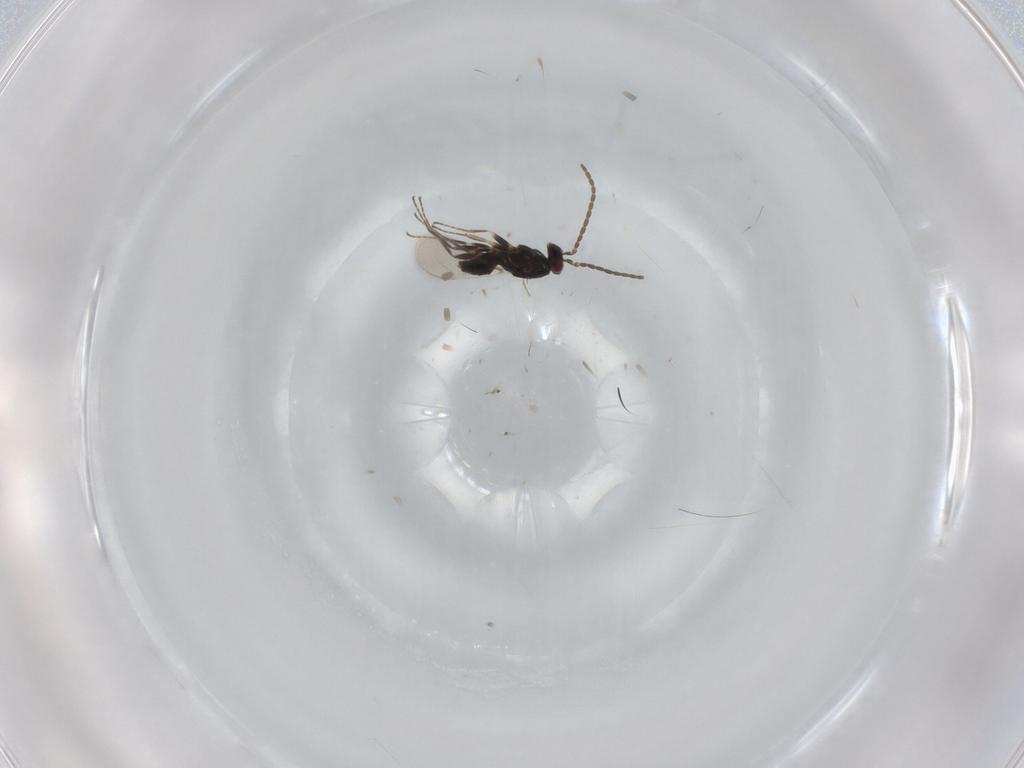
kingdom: Animalia
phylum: Arthropoda
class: Insecta
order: Hymenoptera
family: Mymaridae
